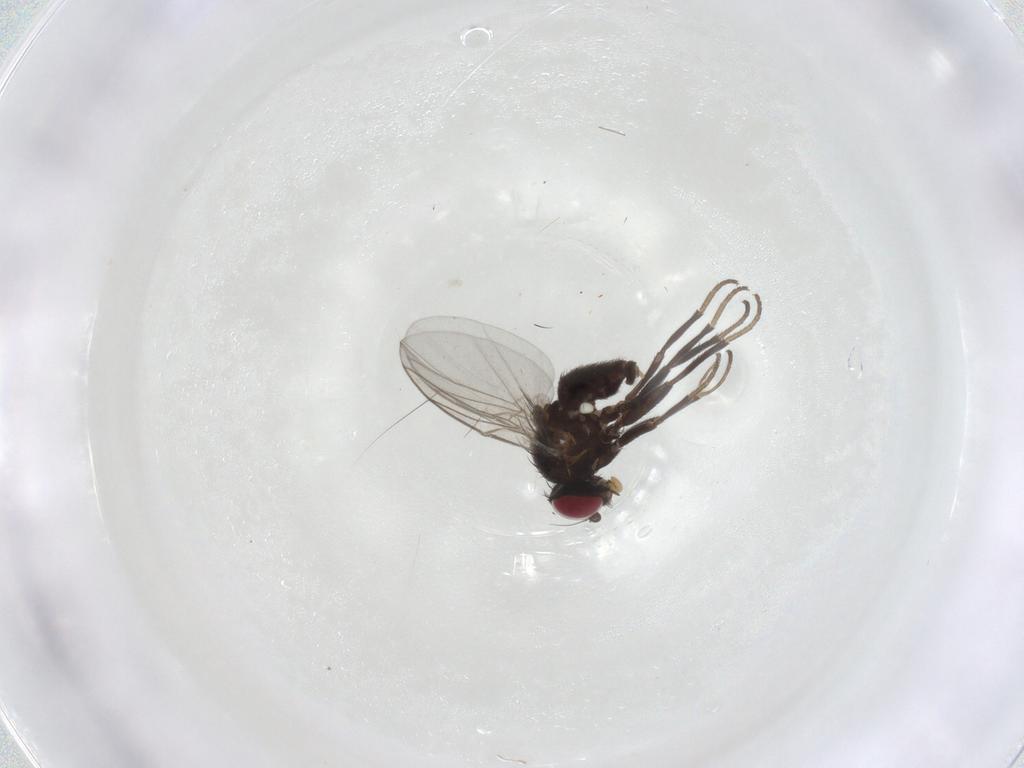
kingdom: Animalia
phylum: Arthropoda
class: Insecta
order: Diptera
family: Agromyzidae
